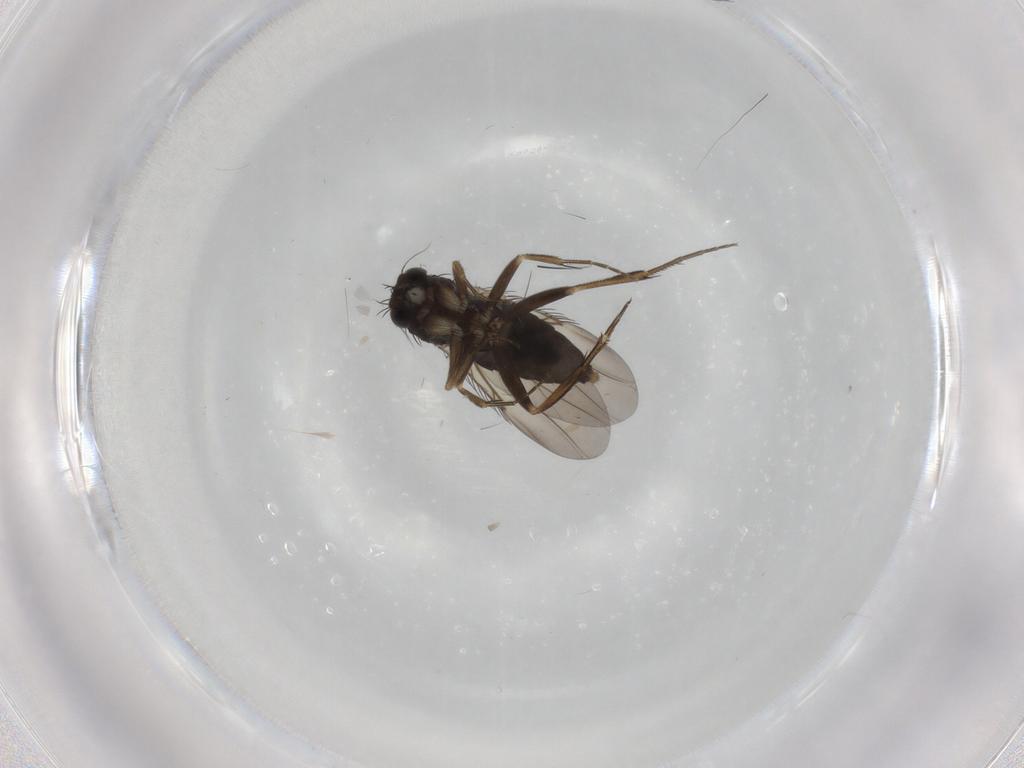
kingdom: Animalia
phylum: Arthropoda
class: Insecta
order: Diptera
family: Phoridae
